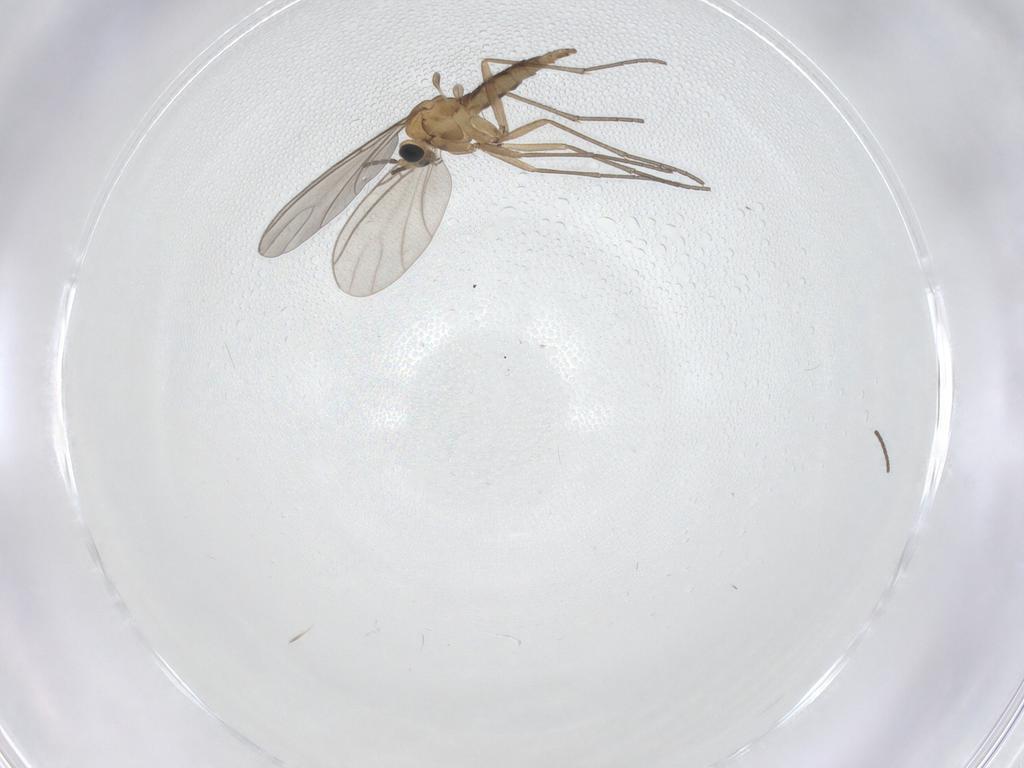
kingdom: Animalia
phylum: Arthropoda
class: Insecta
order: Diptera
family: Sciaridae
